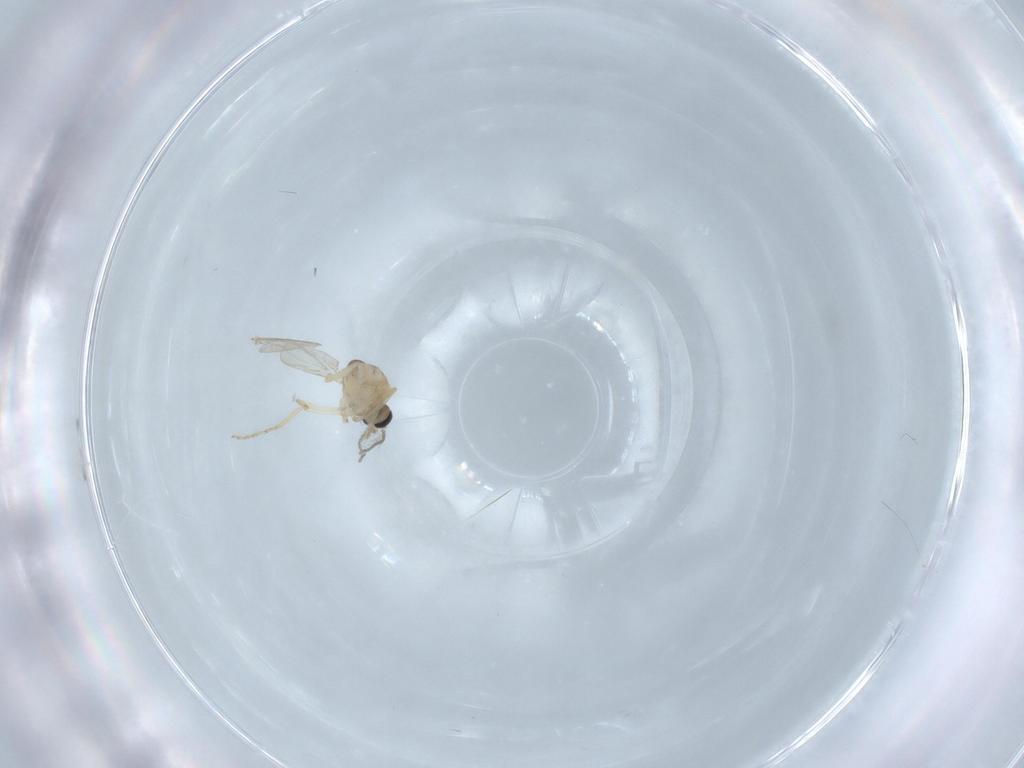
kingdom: Animalia
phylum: Arthropoda
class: Insecta
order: Diptera
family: Ceratopogonidae
